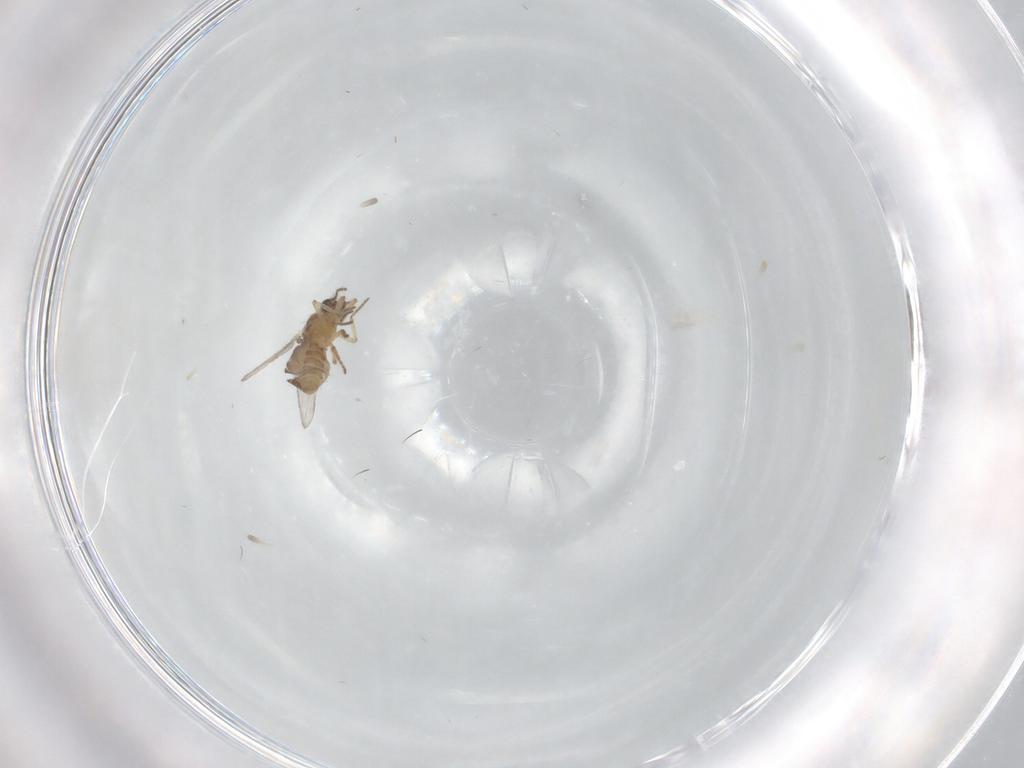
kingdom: Animalia
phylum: Arthropoda
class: Insecta
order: Diptera
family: Ceratopogonidae
